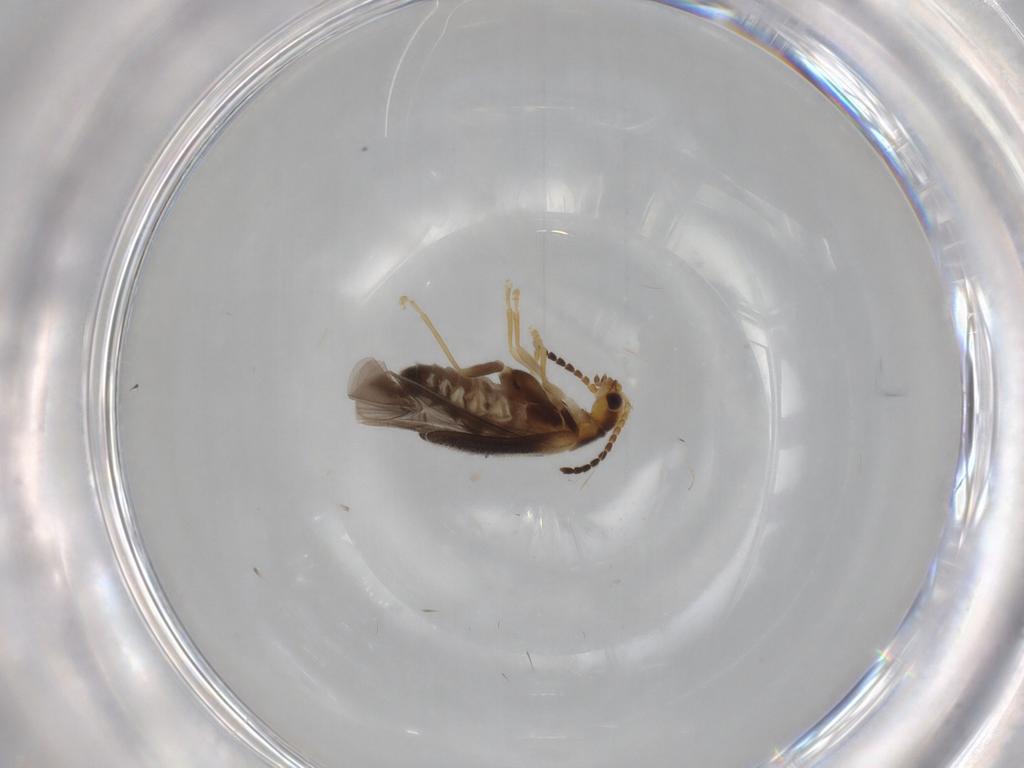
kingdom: Animalia
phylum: Arthropoda
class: Insecta
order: Coleoptera
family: Cantharidae
